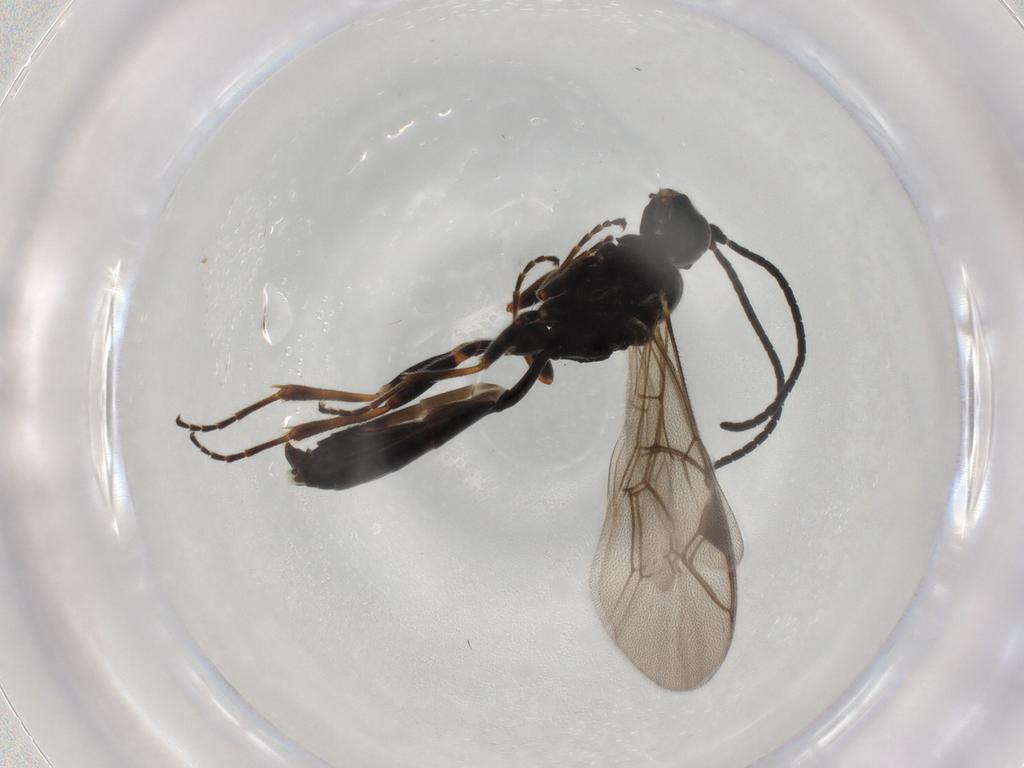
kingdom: Animalia
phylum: Arthropoda
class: Insecta
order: Hymenoptera
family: Ichneumonidae
